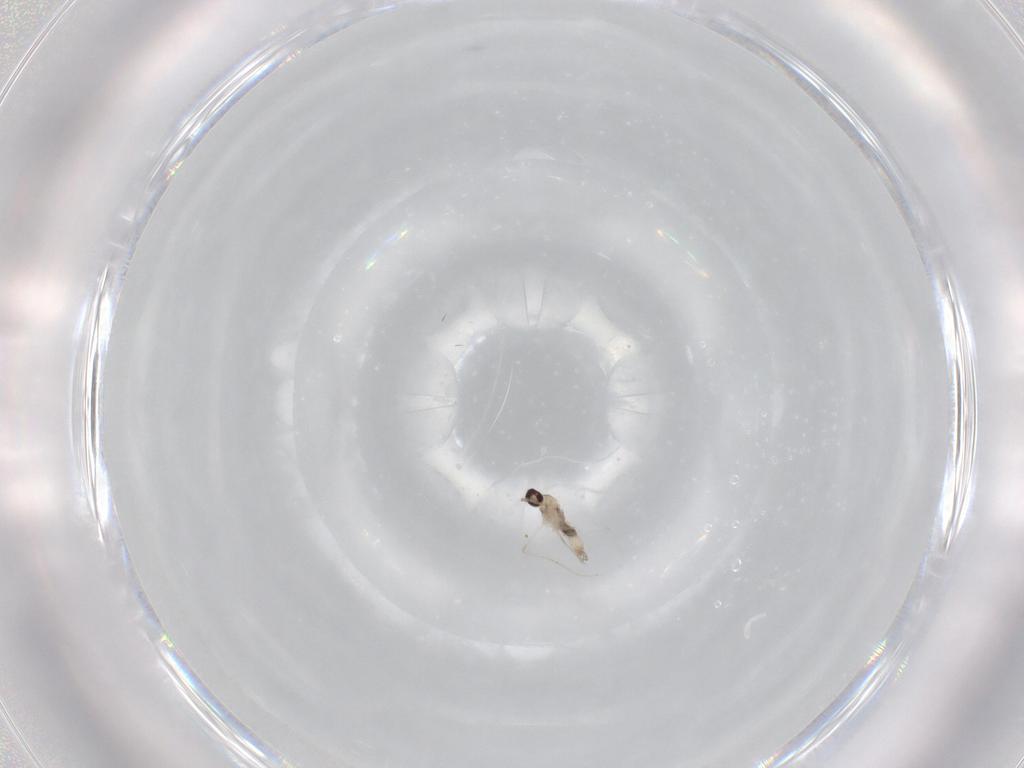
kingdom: Animalia
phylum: Arthropoda
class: Insecta
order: Diptera
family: Cecidomyiidae
